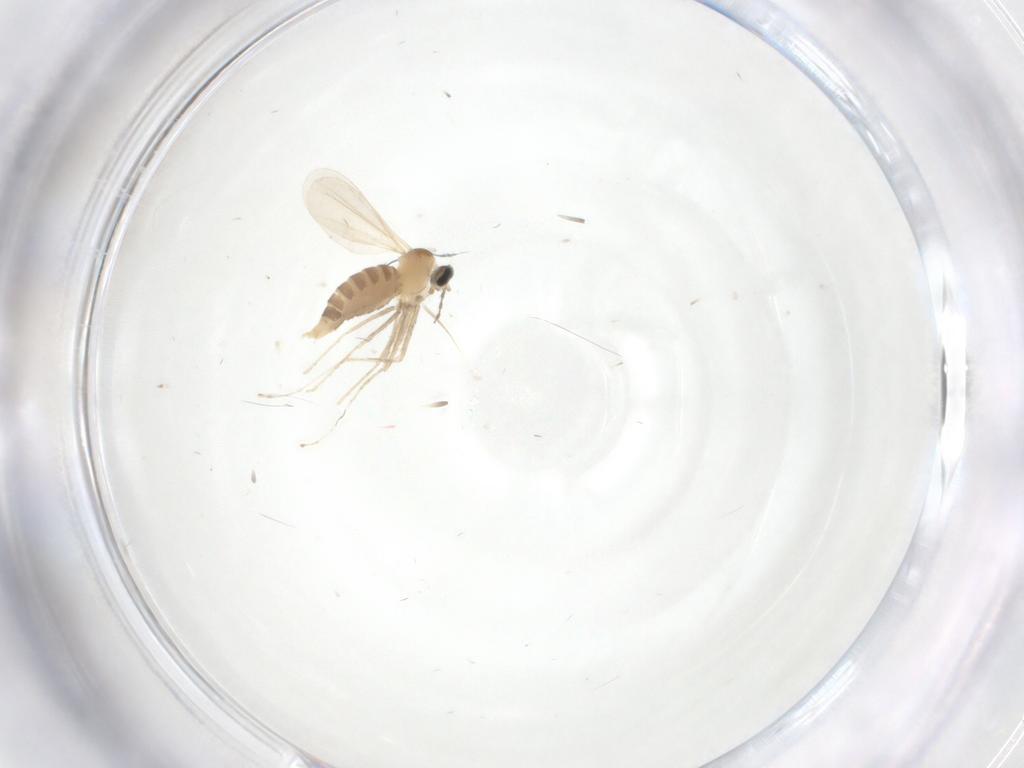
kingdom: Animalia
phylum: Arthropoda
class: Insecta
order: Diptera
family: Cecidomyiidae
